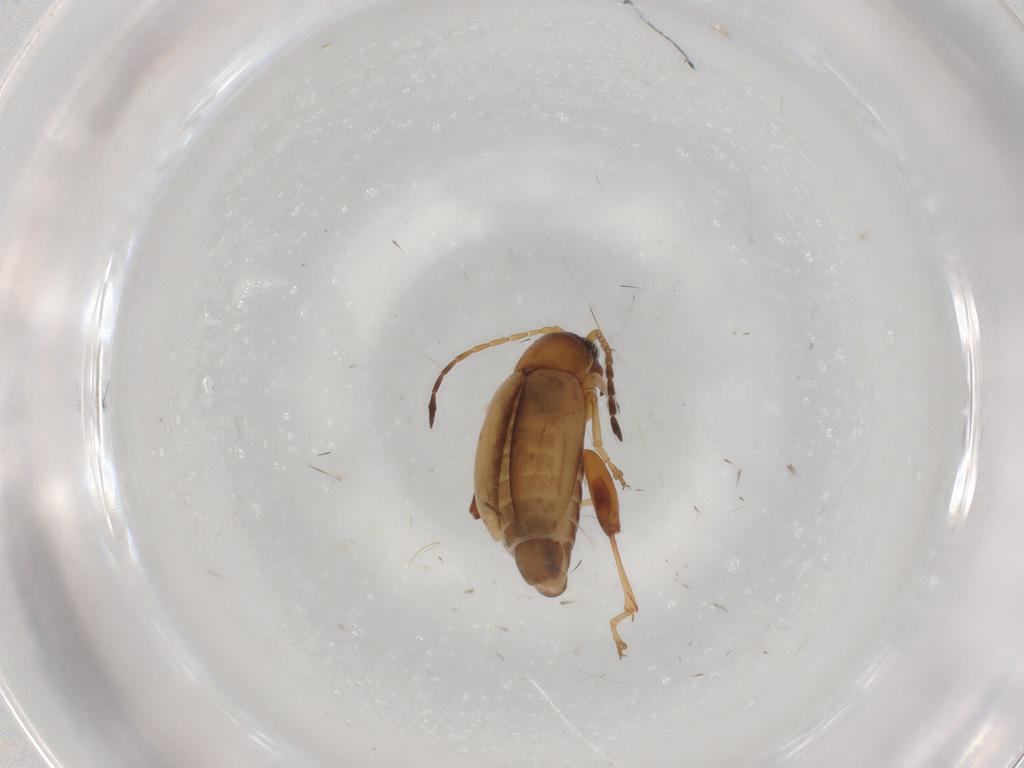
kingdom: Animalia
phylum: Arthropoda
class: Insecta
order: Coleoptera
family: Chrysomelidae
